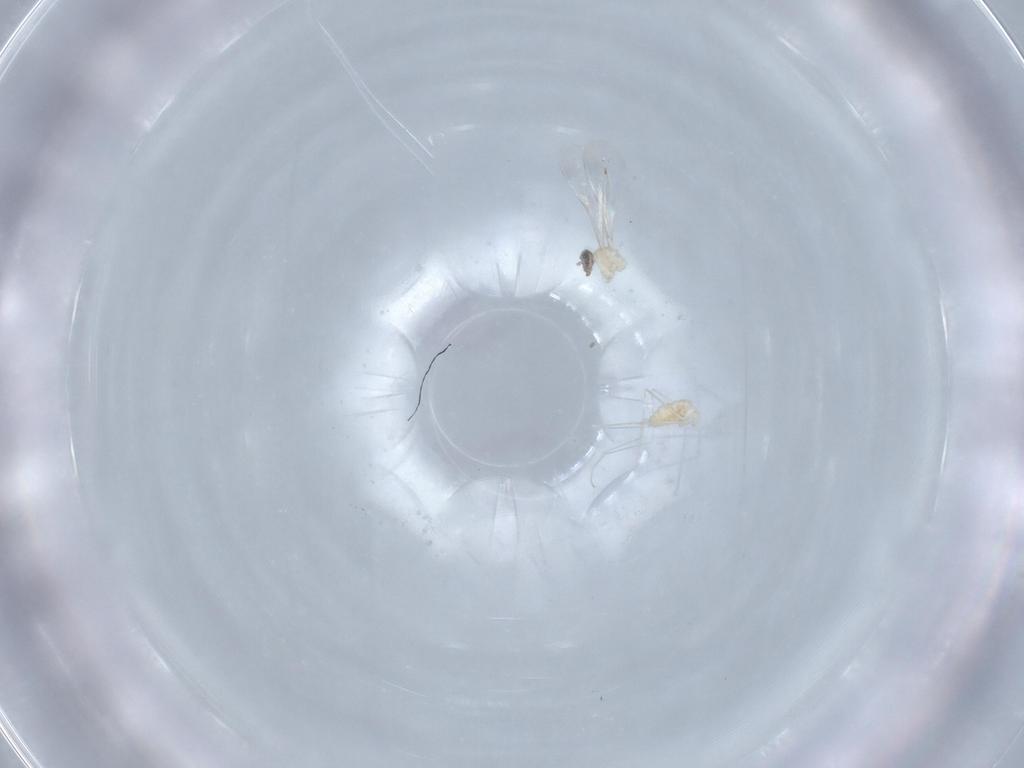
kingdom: Animalia
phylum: Arthropoda
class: Insecta
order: Diptera
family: Cecidomyiidae
